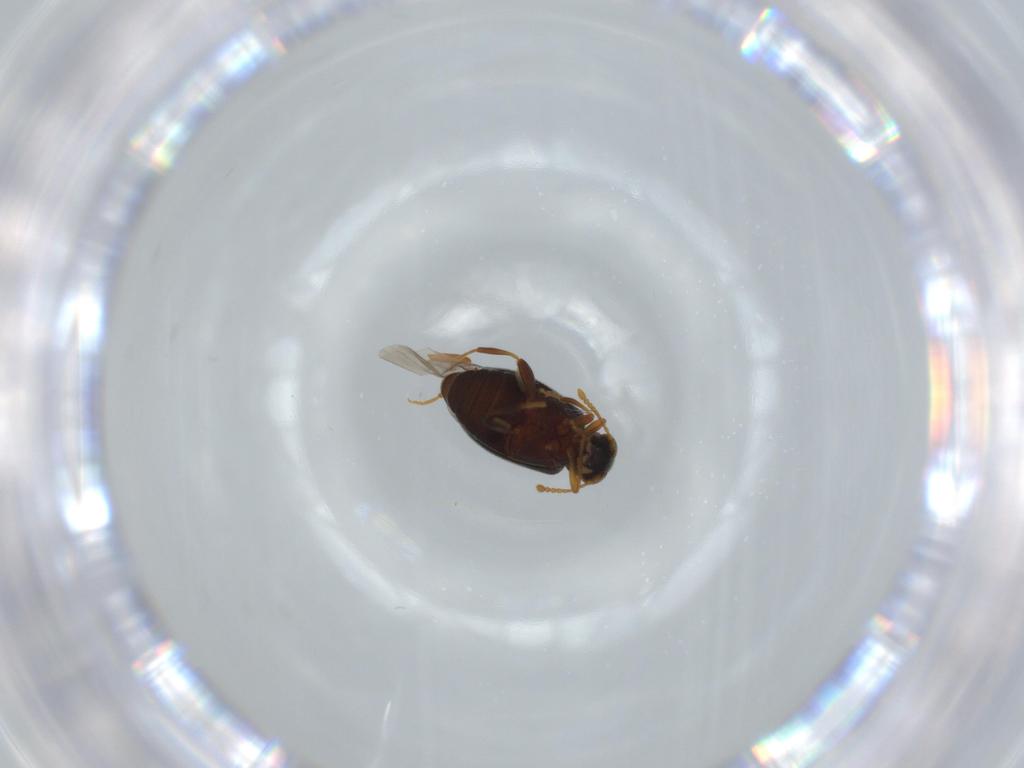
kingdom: Animalia
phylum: Arthropoda
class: Insecta
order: Coleoptera
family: Aderidae
